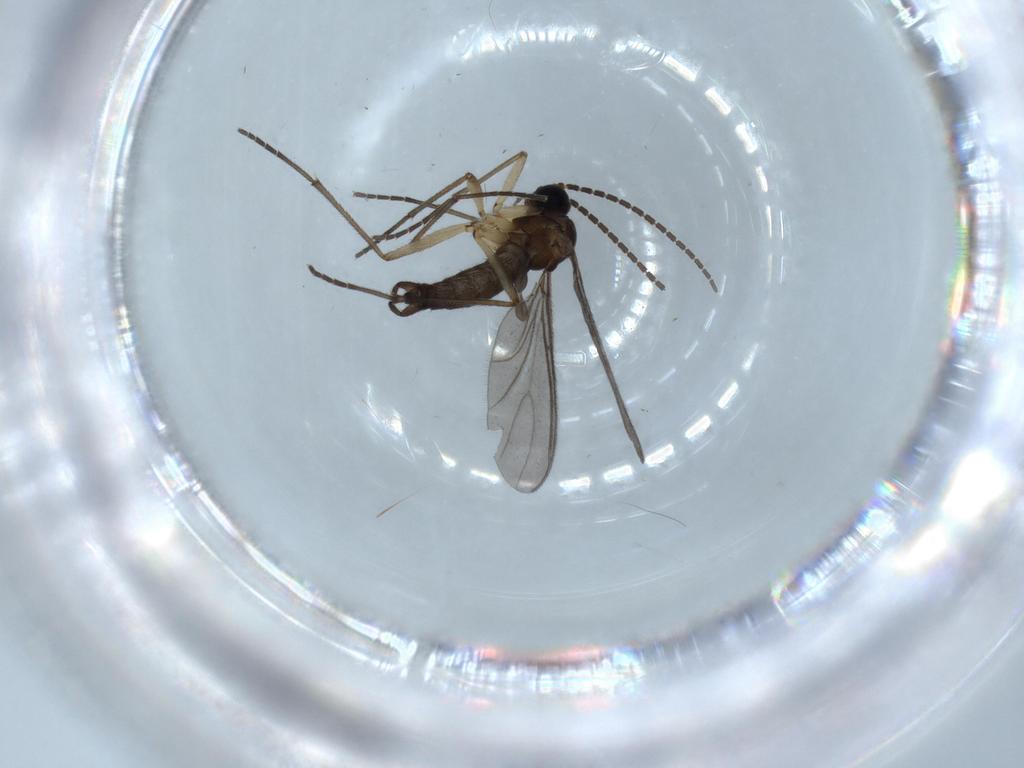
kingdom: Animalia
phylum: Arthropoda
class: Insecta
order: Diptera
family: Sciaridae
